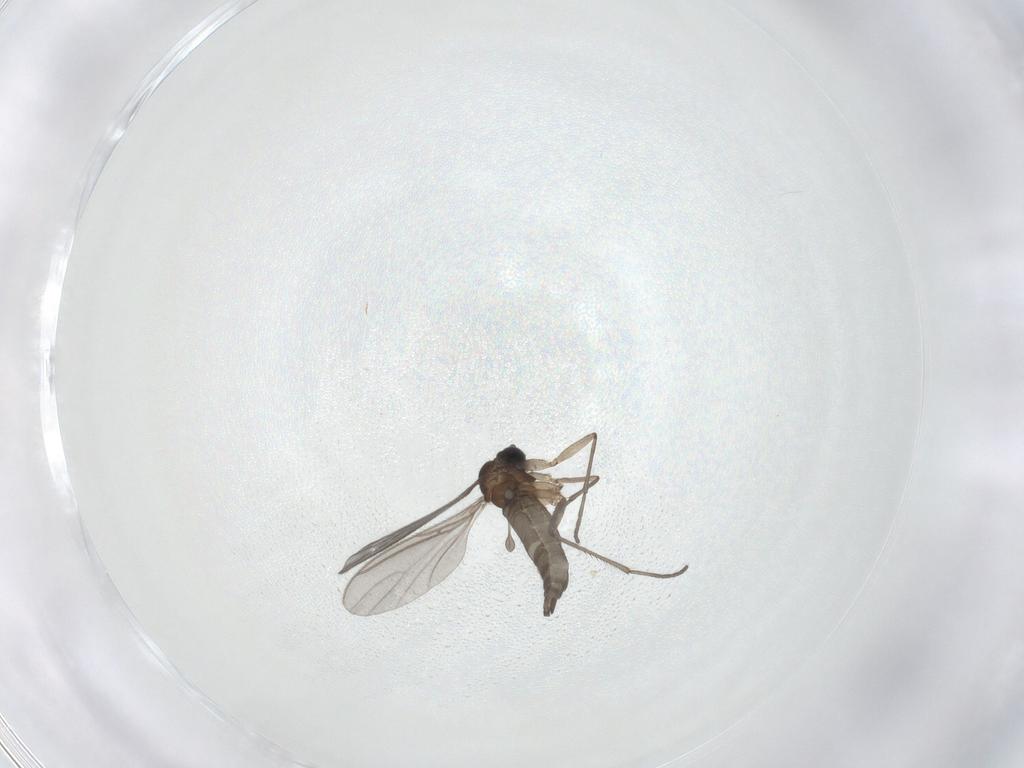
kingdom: Animalia
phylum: Arthropoda
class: Insecta
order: Diptera
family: Sciaridae
